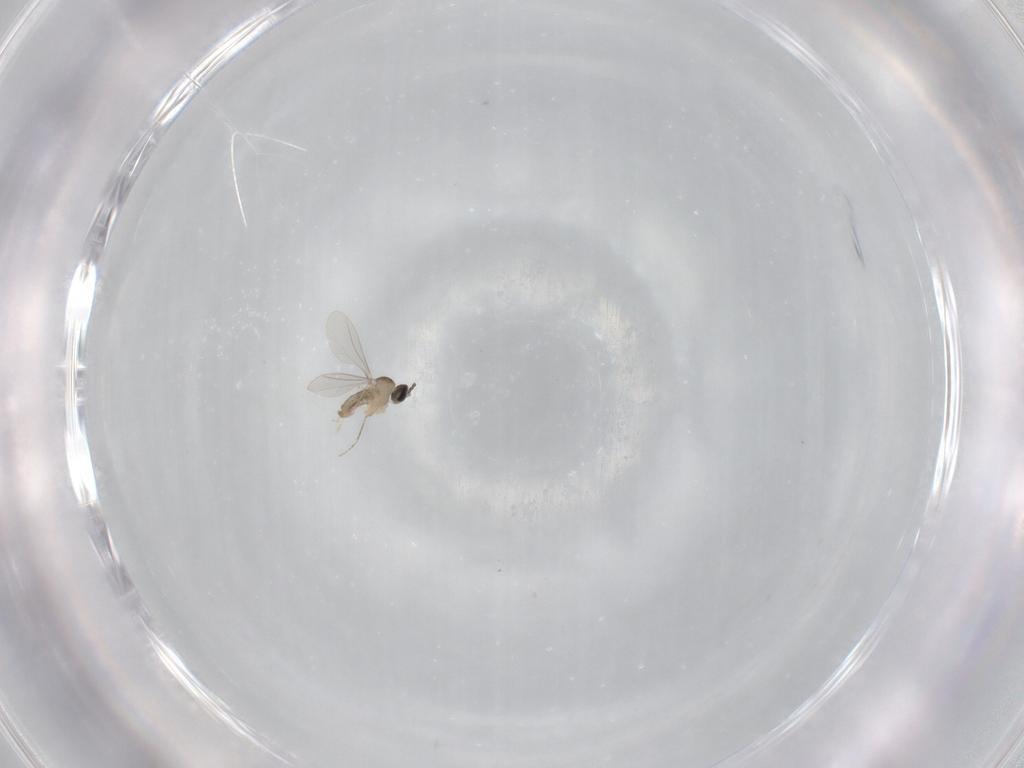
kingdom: Animalia
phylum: Arthropoda
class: Insecta
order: Diptera
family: Cecidomyiidae
